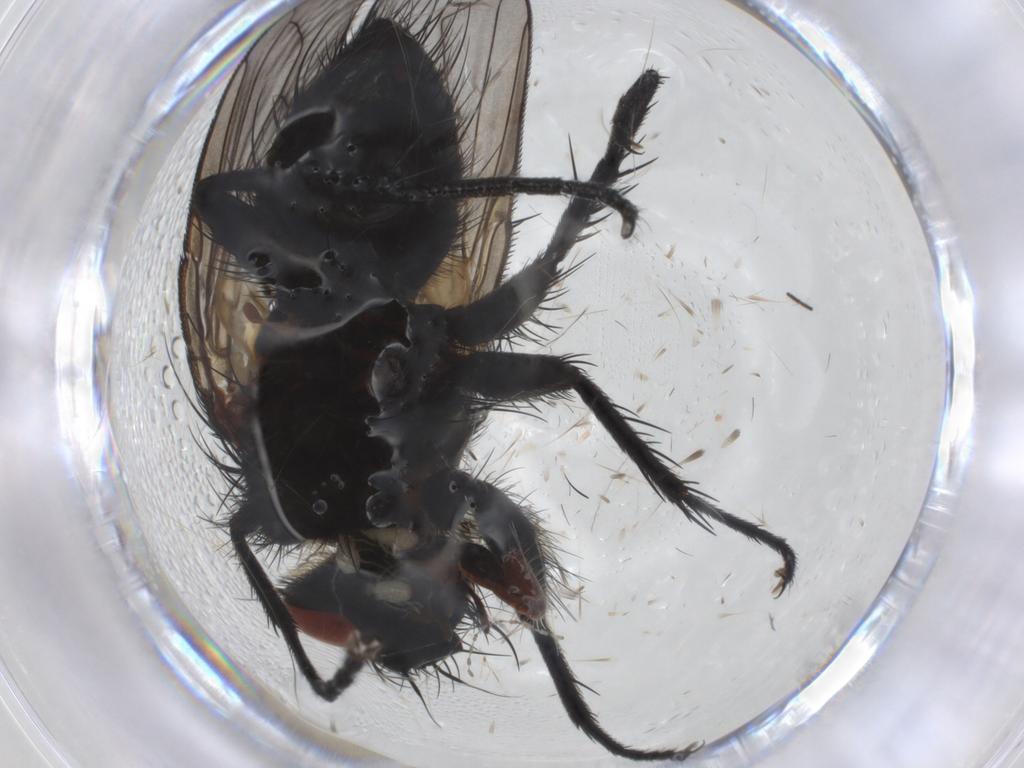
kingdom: Animalia
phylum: Arthropoda
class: Insecta
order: Diptera
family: Tachinidae
